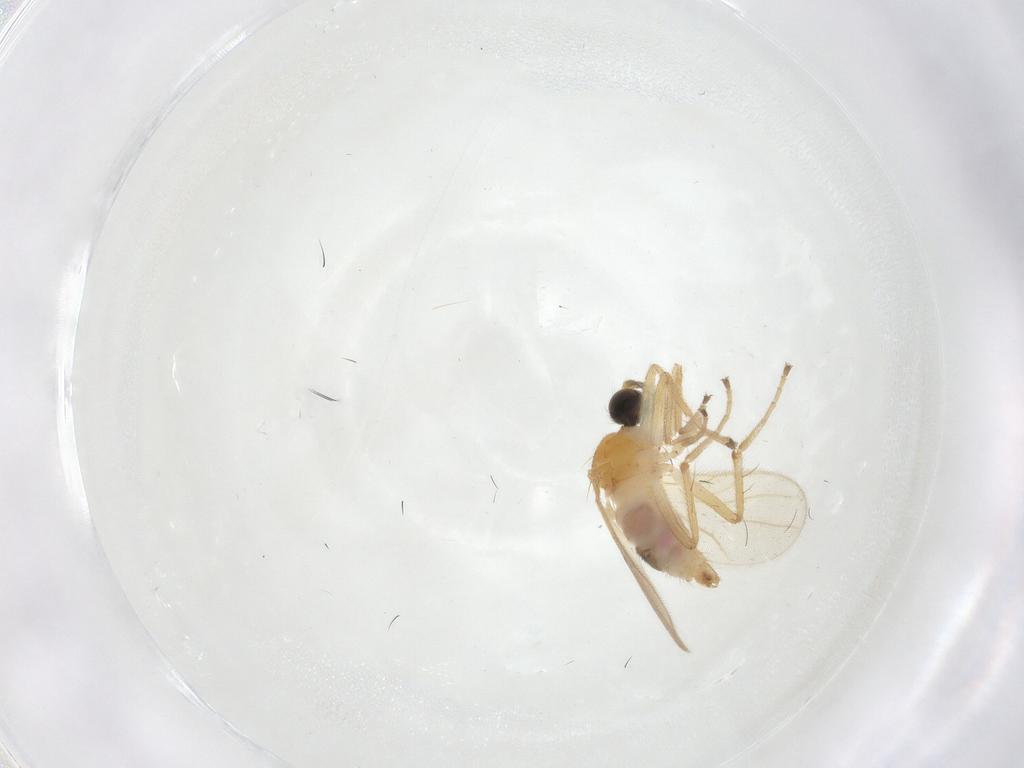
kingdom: Animalia
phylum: Arthropoda
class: Insecta
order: Diptera
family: Hybotidae
